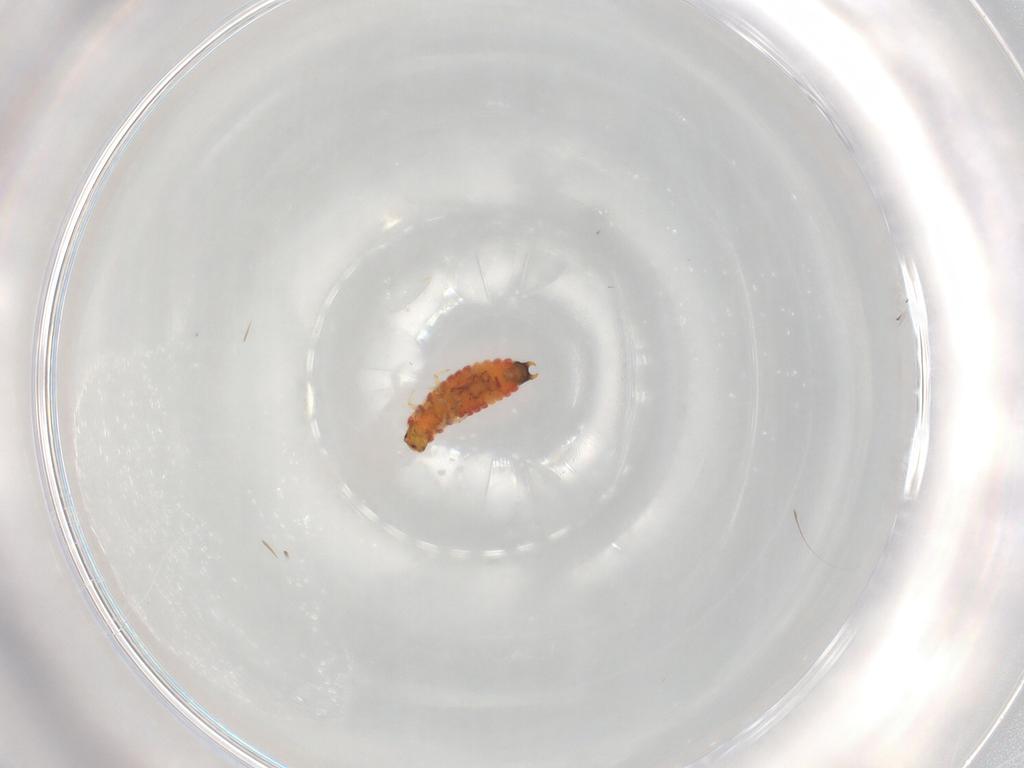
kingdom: Animalia
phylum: Arthropoda
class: Insecta
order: Coleoptera
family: Melyridae
